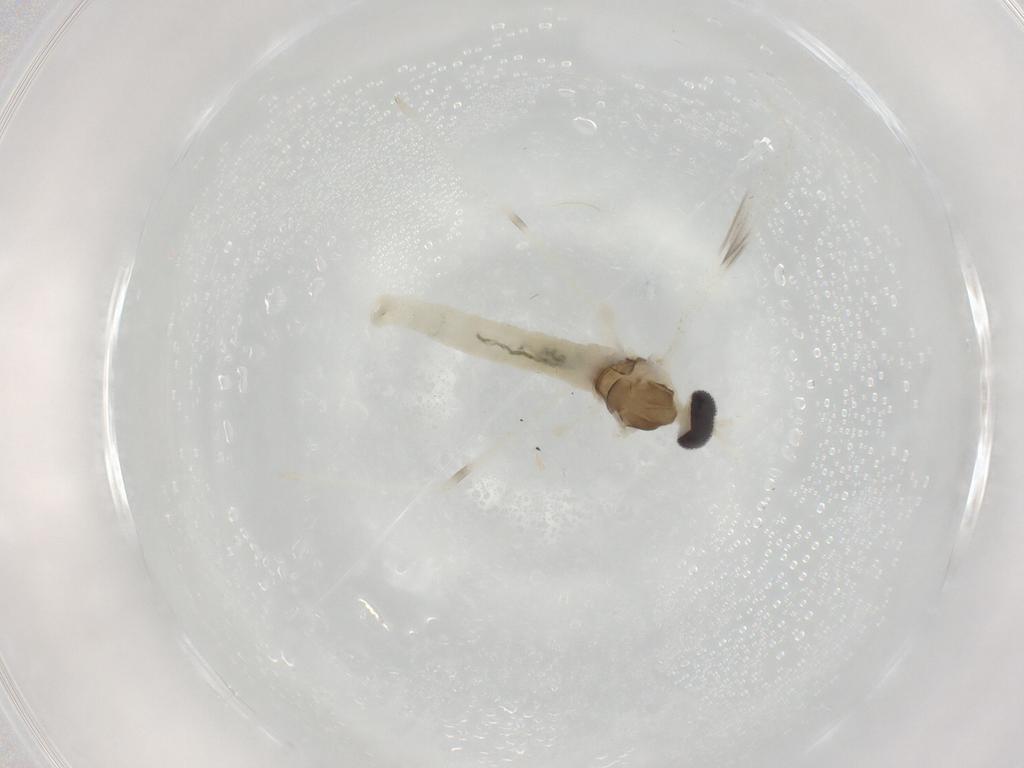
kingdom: Animalia
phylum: Arthropoda
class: Insecta
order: Diptera
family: Cecidomyiidae
